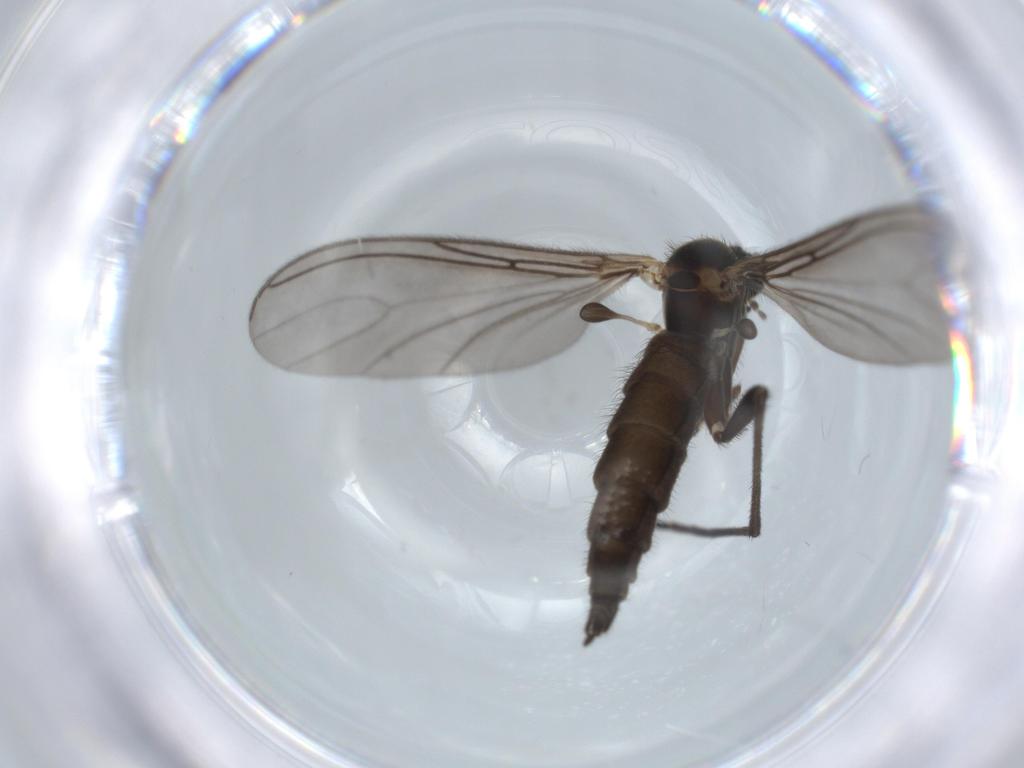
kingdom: Animalia
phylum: Arthropoda
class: Insecta
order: Diptera
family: Sciaridae
